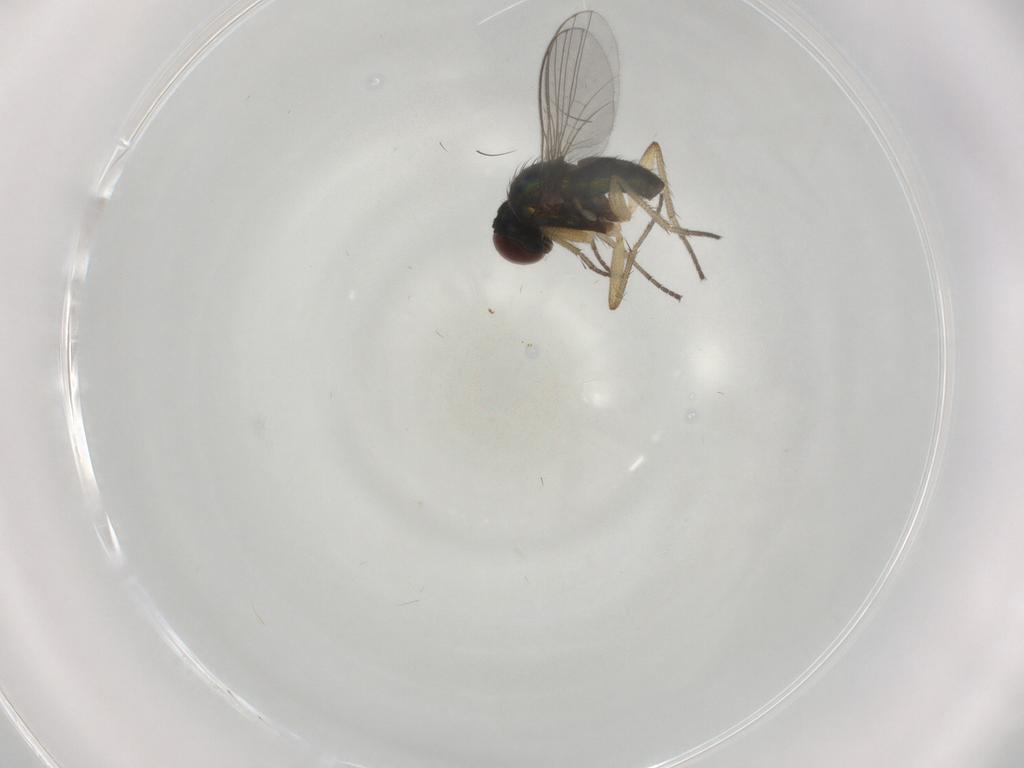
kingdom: Animalia
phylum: Arthropoda
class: Insecta
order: Diptera
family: Dolichopodidae
